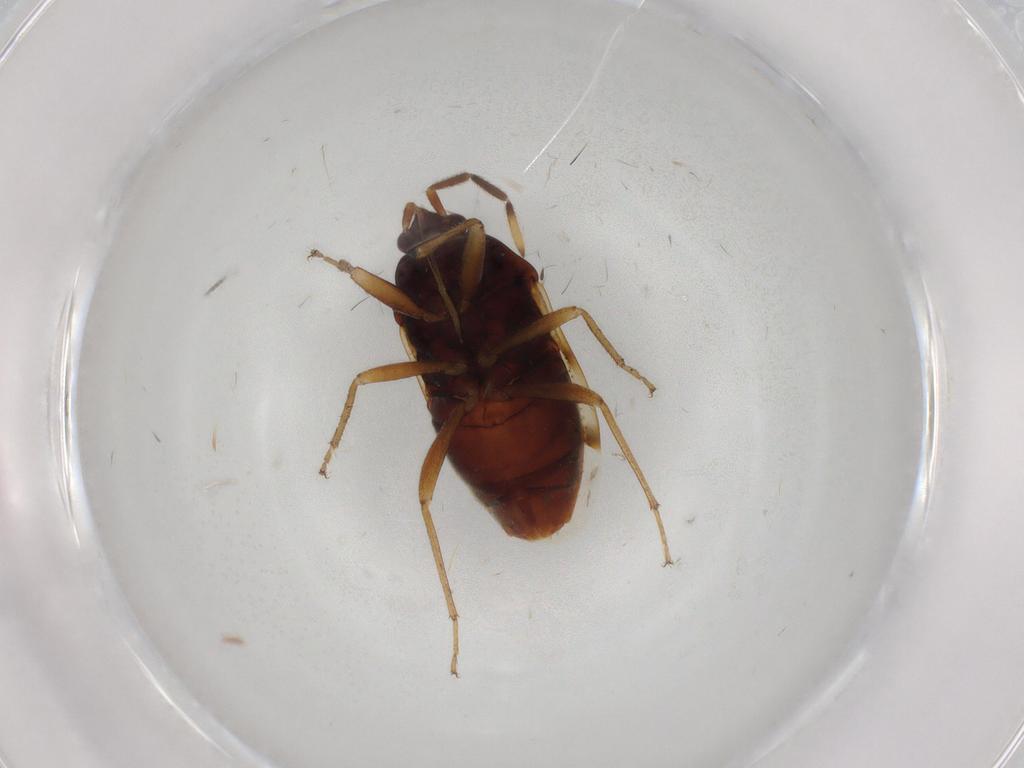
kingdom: Animalia
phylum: Arthropoda
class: Insecta
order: Hemiptera
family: Rhyparochromidae
